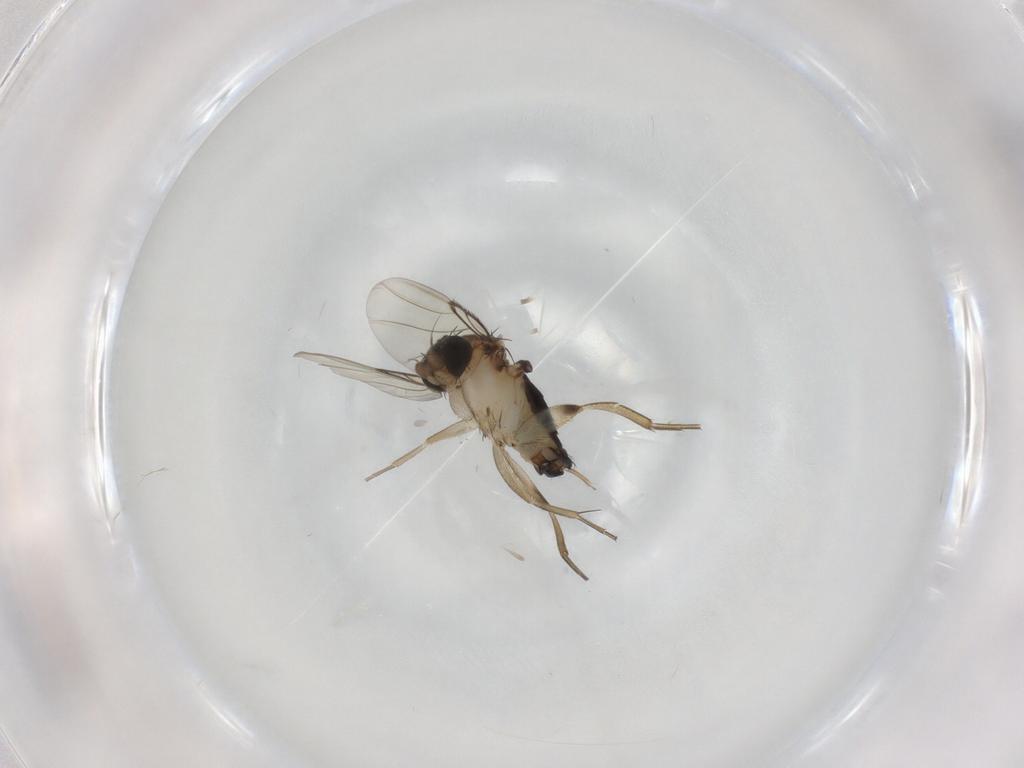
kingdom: Animalia
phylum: Arthropoda
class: Insecta
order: Diptera
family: Phoridae
